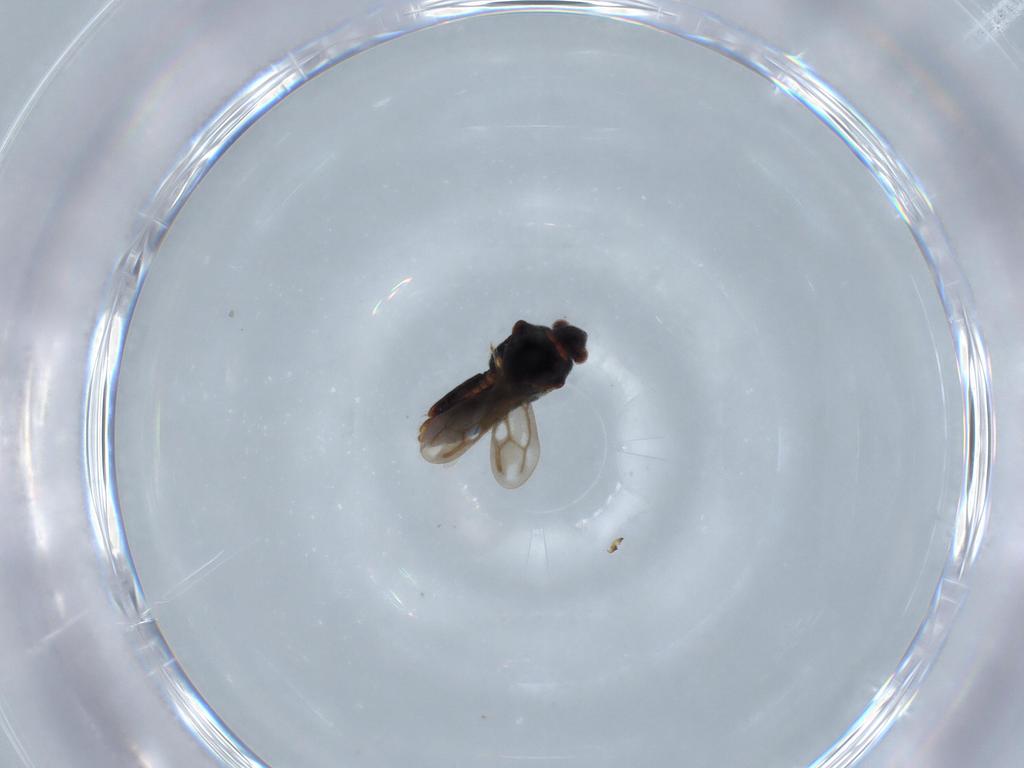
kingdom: Animalia
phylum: Arthropoda
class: Insecta
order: Hemiptera
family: Veliidae
